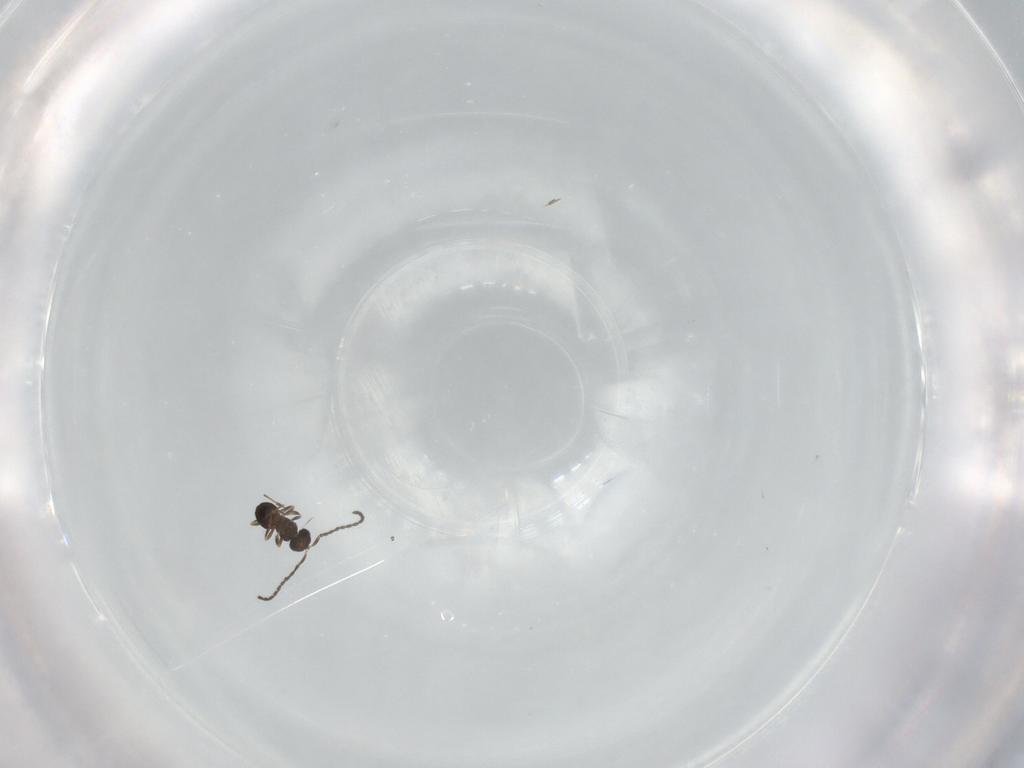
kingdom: Animalia
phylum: Arthropoda
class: Insecta
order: Hymenoptera
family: Scelionidae
